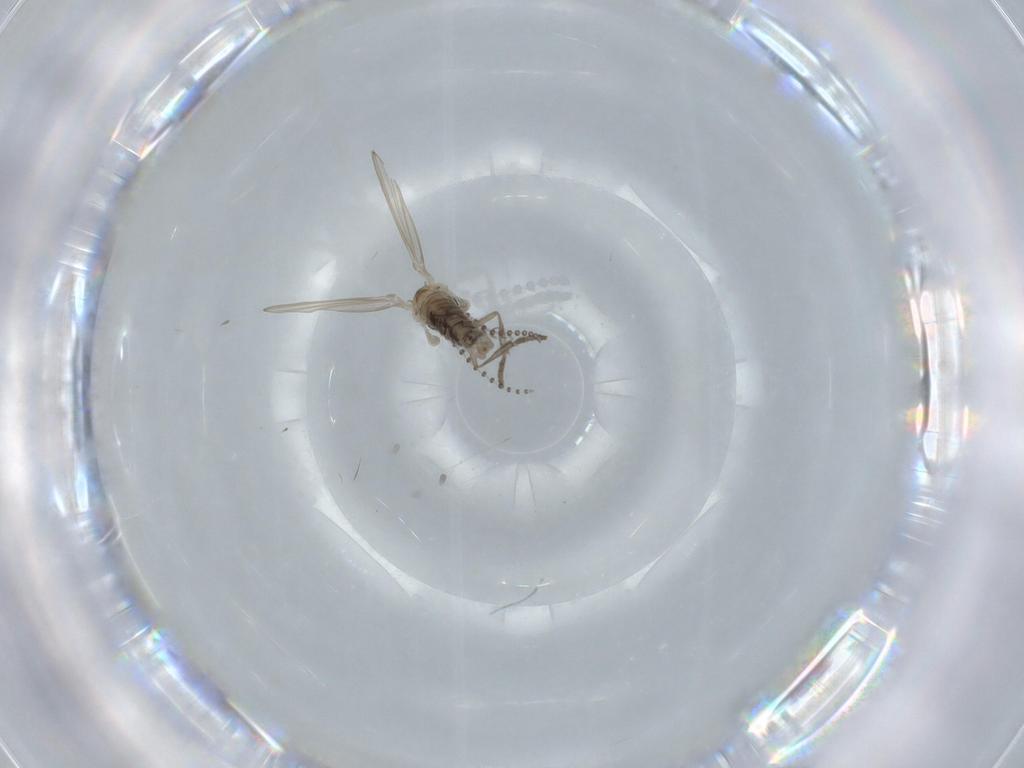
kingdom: Animalia
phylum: Arthropoda
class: Insecta
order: Diptera
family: Psychodidae
